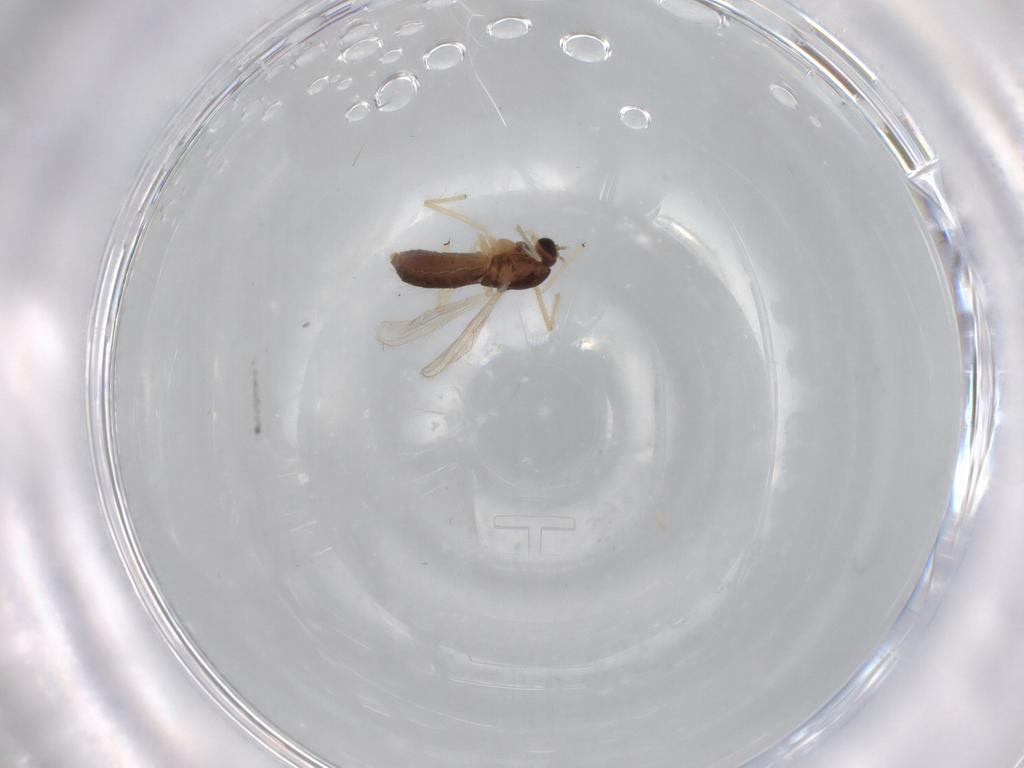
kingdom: Animalia
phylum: Arthropoda
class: Insecta
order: Diptera
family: Chironomidae
